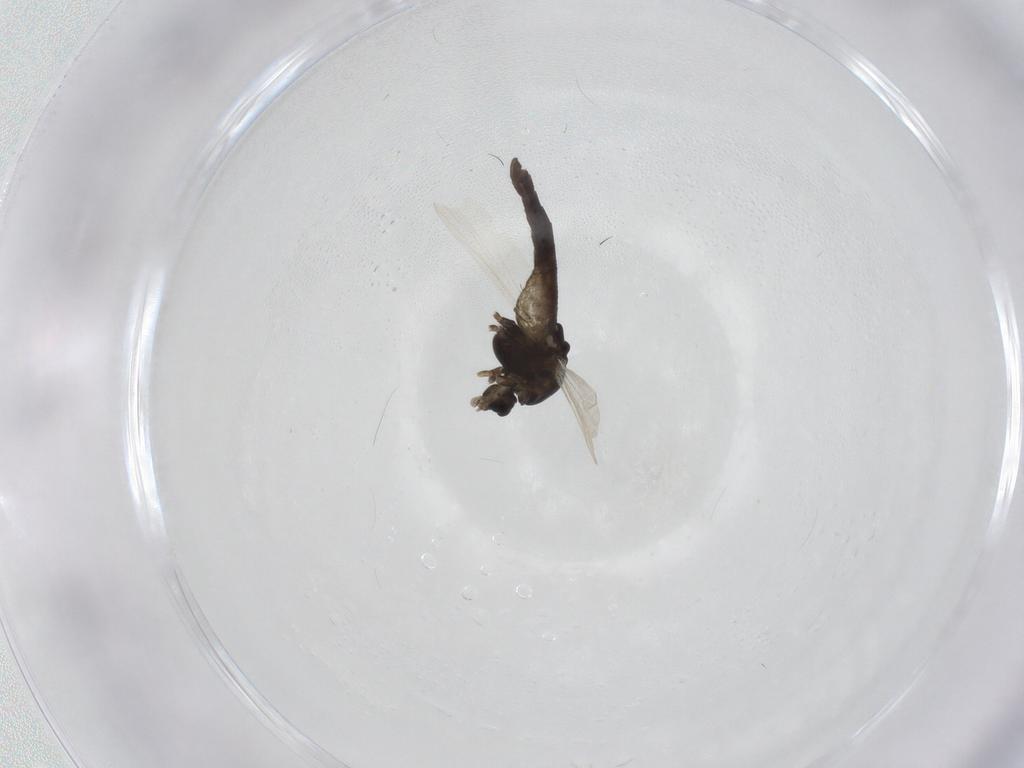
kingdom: Animalia
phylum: Arthropoda
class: Insecta
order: Diptera
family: Chironomidae
